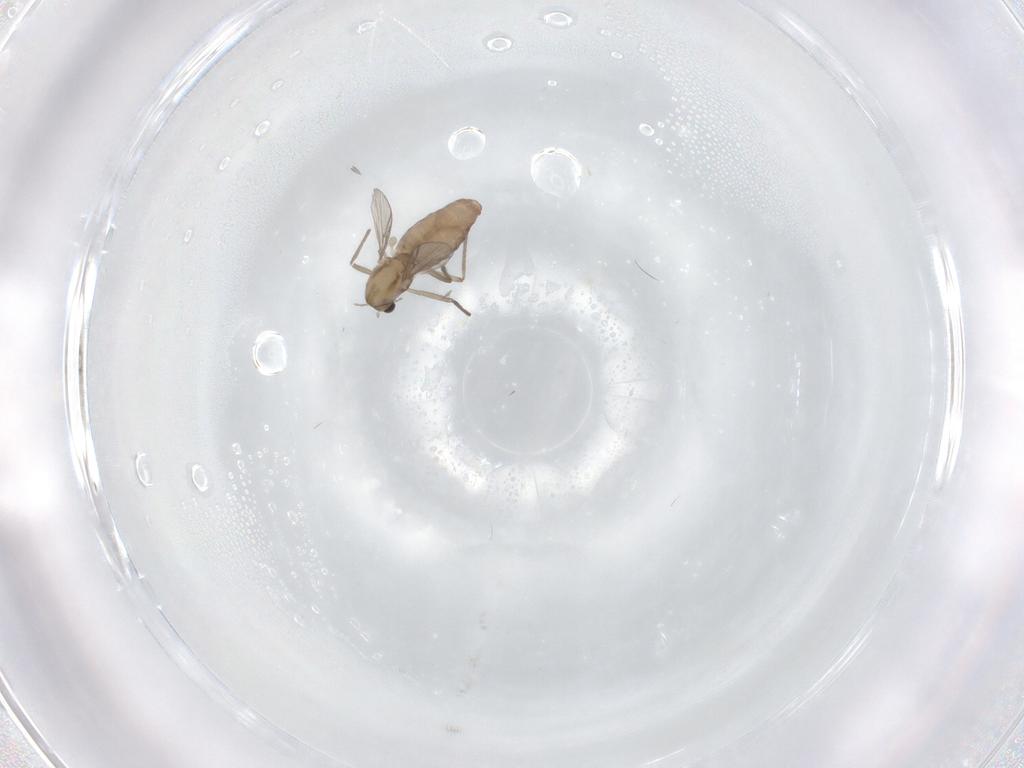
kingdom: Animalia
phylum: Arthropoda
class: Insecta
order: Diptera
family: Chironomidae
